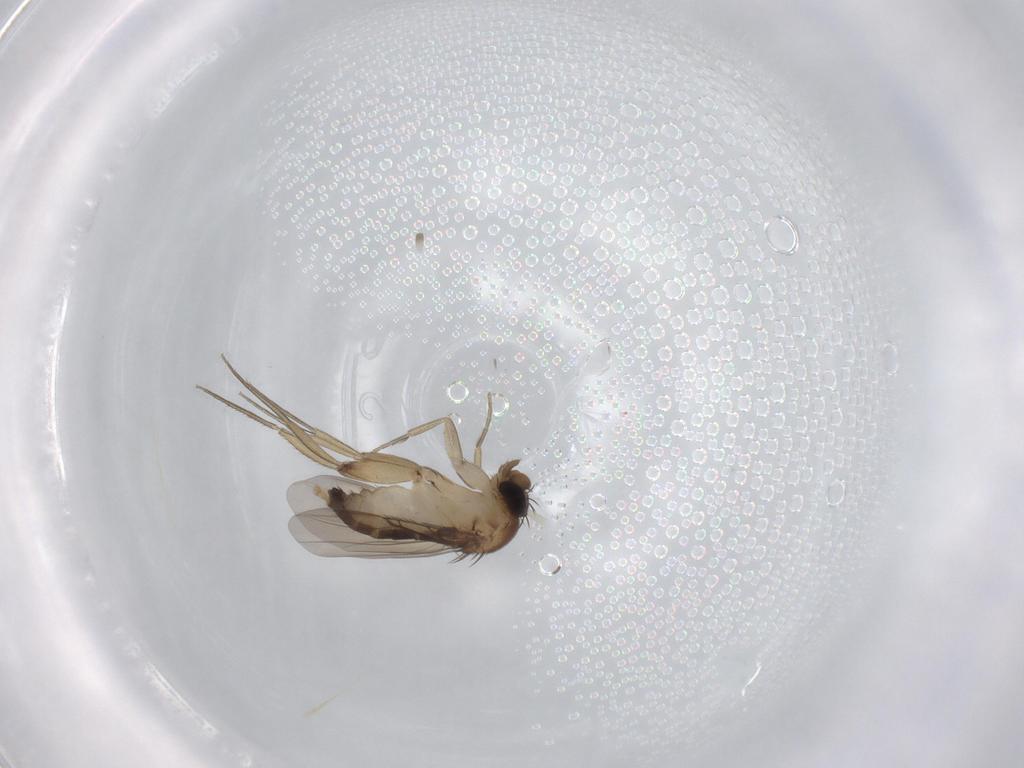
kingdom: Animalia
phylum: Arthropoda
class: Insecta
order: Diptera
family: Phoridae
